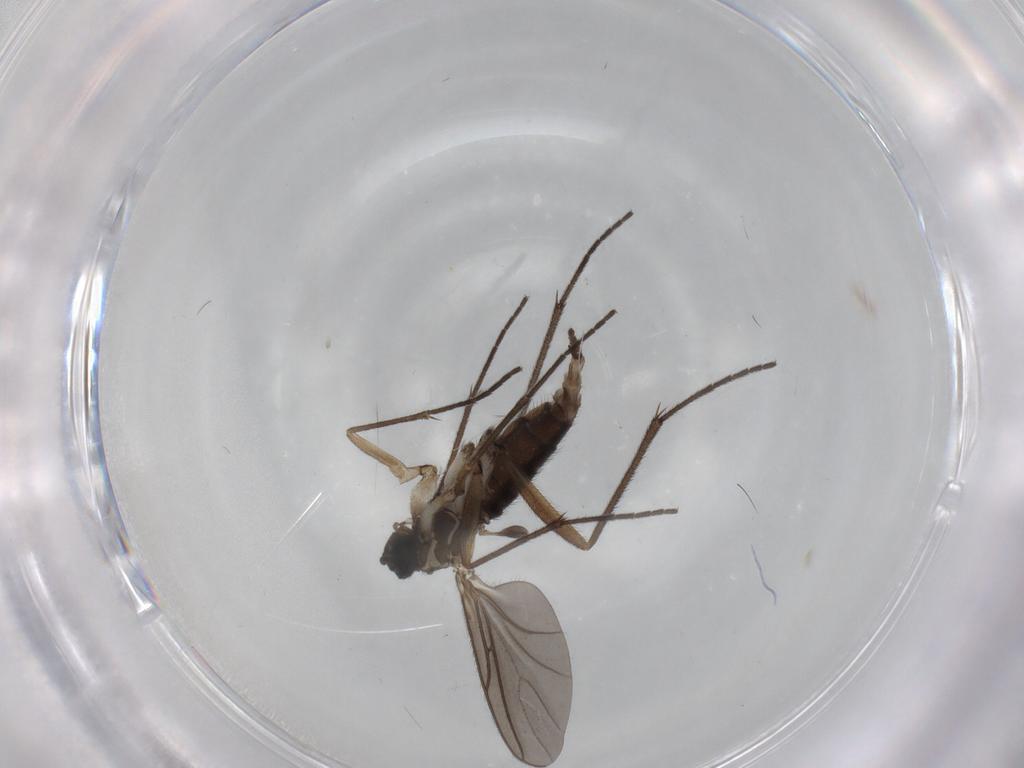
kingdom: Animalia
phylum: Arthropoda
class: Insecta
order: Diptera
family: Sciaridae
